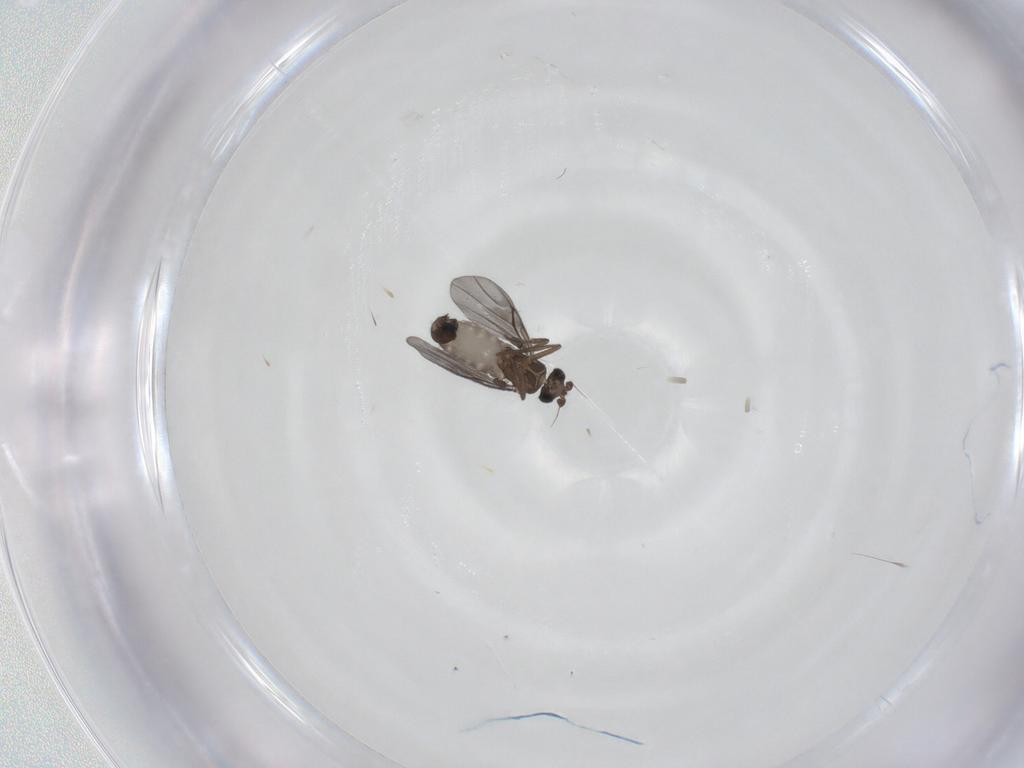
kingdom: Animalia
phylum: Arthropoda
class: Insecta
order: Diptera
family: Phoridae
